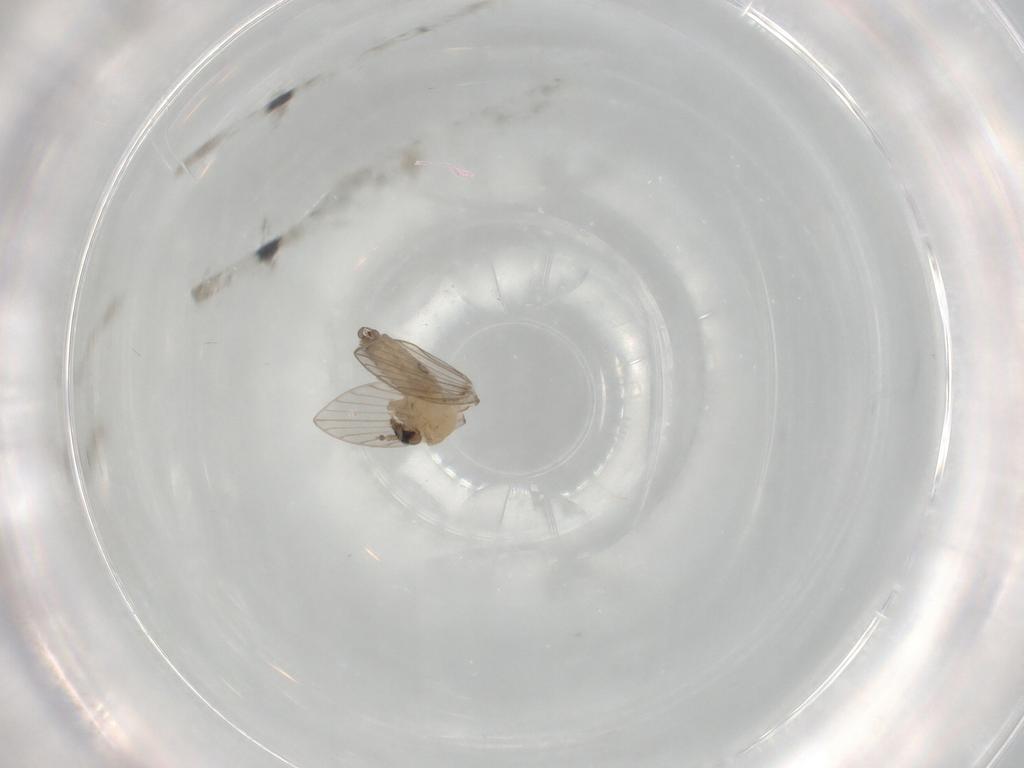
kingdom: Animalia
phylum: Arthropoda
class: Insecta
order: Diptera
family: Psychodidae
